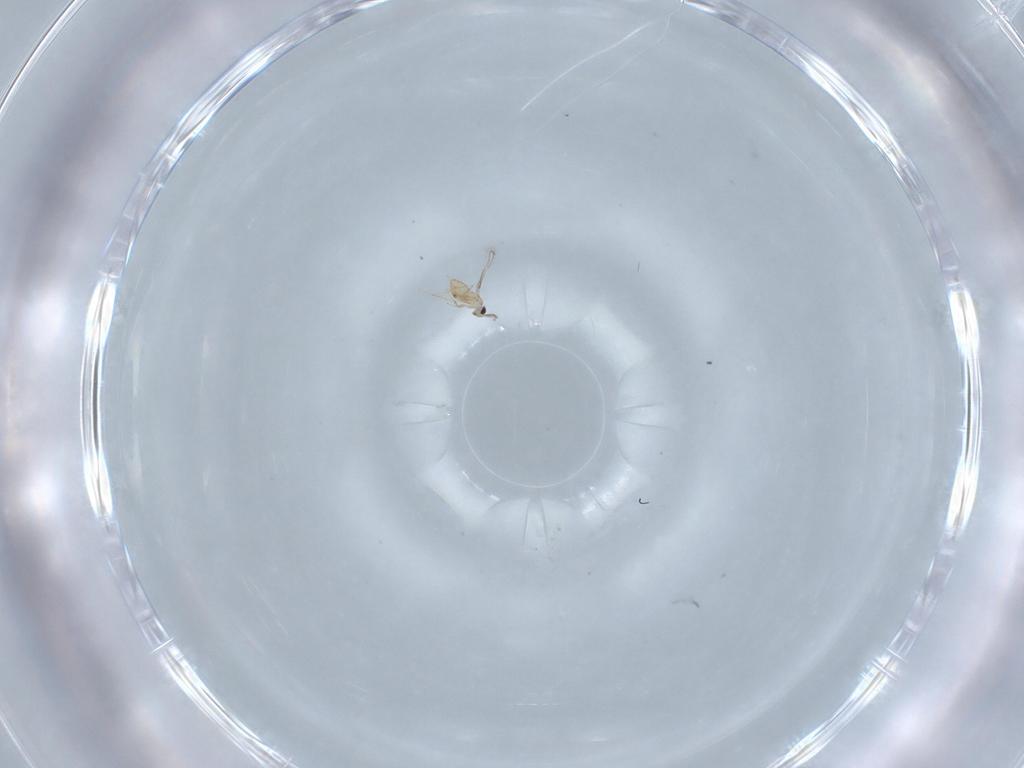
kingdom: Animalia
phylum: Arthropoda
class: Insecta
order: Hymenoptera
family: Mymaridae
